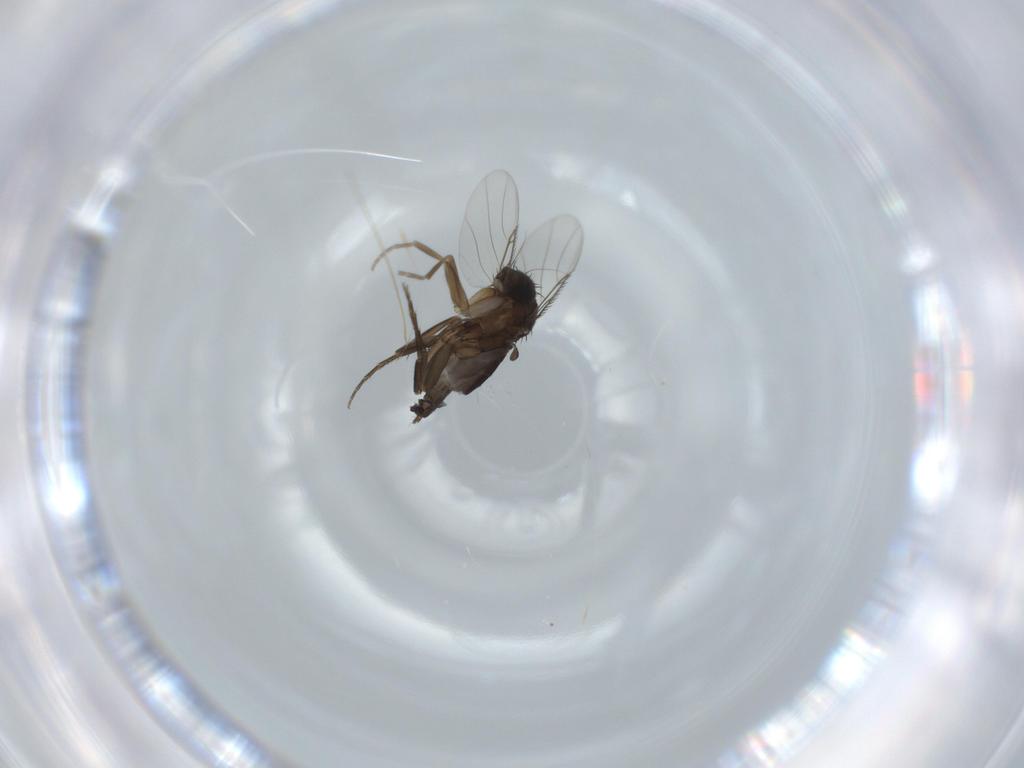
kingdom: Animalia
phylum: Arthropoda
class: Insecta
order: Diptera
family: Phoridae
